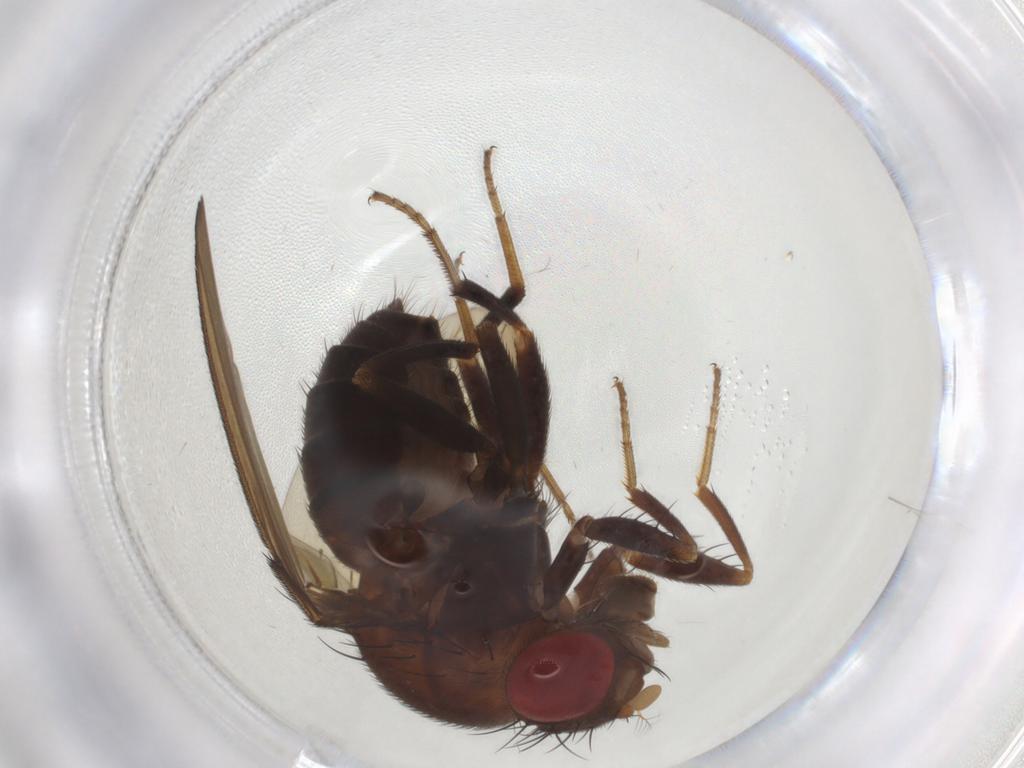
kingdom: Animalia
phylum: Arthropoda
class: Insecta
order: Diptera
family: Drosophilidae
